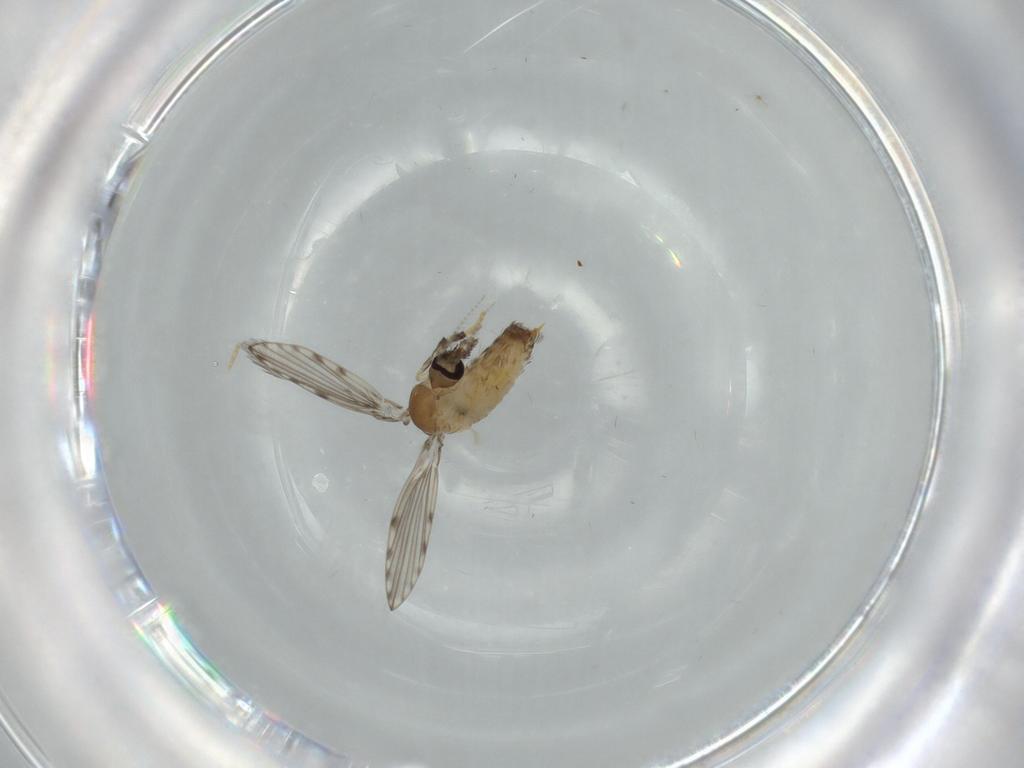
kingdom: Animalia
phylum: Arthropoda
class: Insecta
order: Diptera
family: Psychodidae
